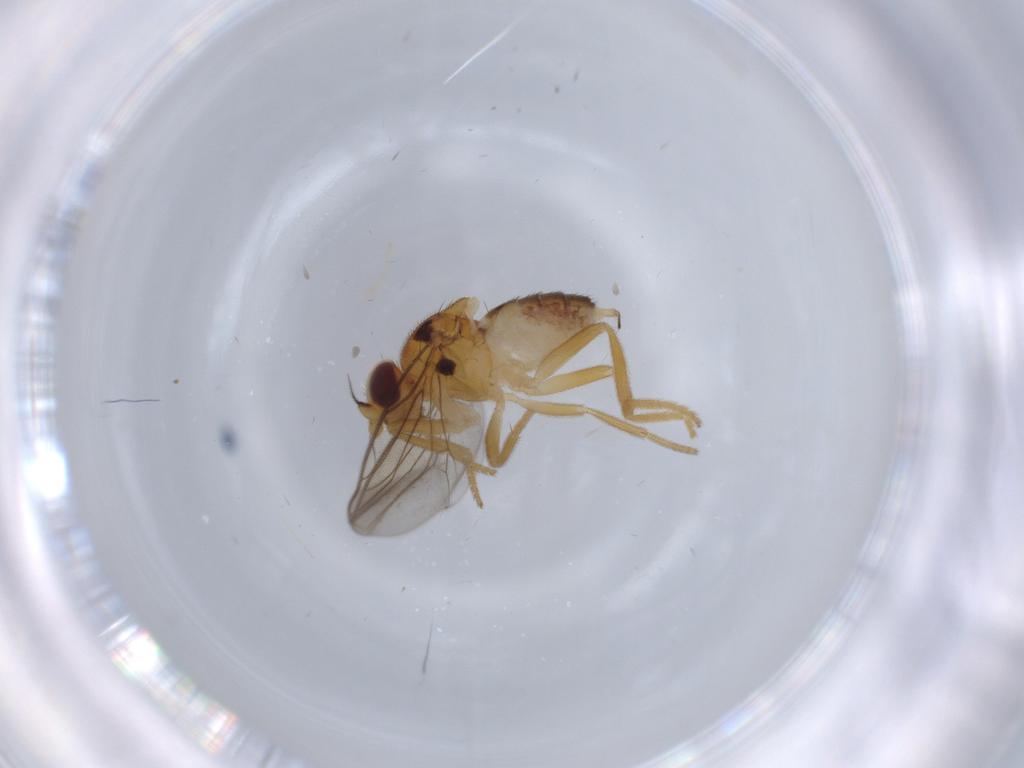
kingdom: Animalia
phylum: Arthropoda
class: Insecta
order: Diptera
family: Chloropidae
